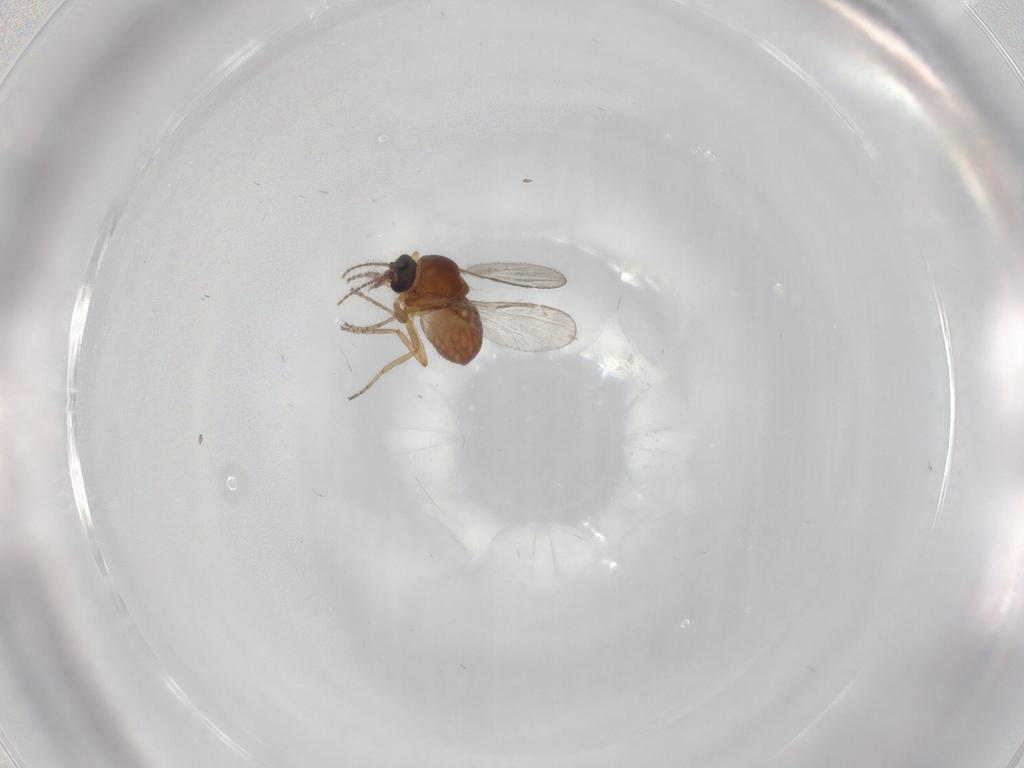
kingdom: Animalia
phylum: Arthropoda
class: Insecta
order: Diptera
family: Ceratopogonidae
